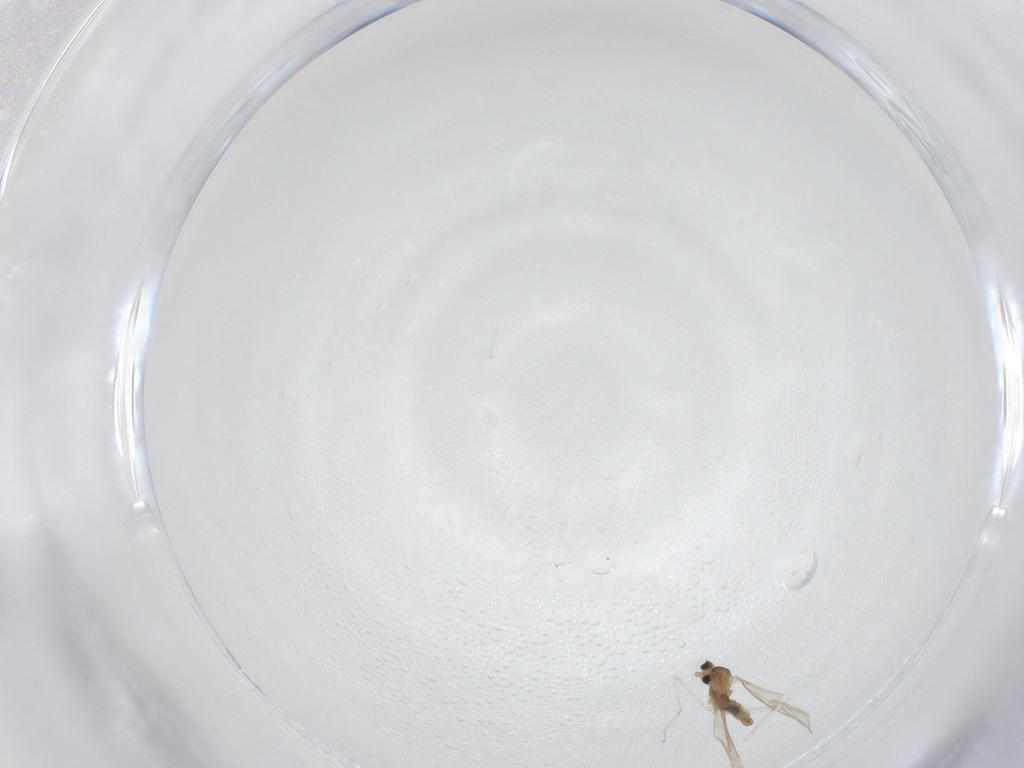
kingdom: Animalia
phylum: Arthropoda
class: Insecta
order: Diptera
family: Cecidomyiidae
